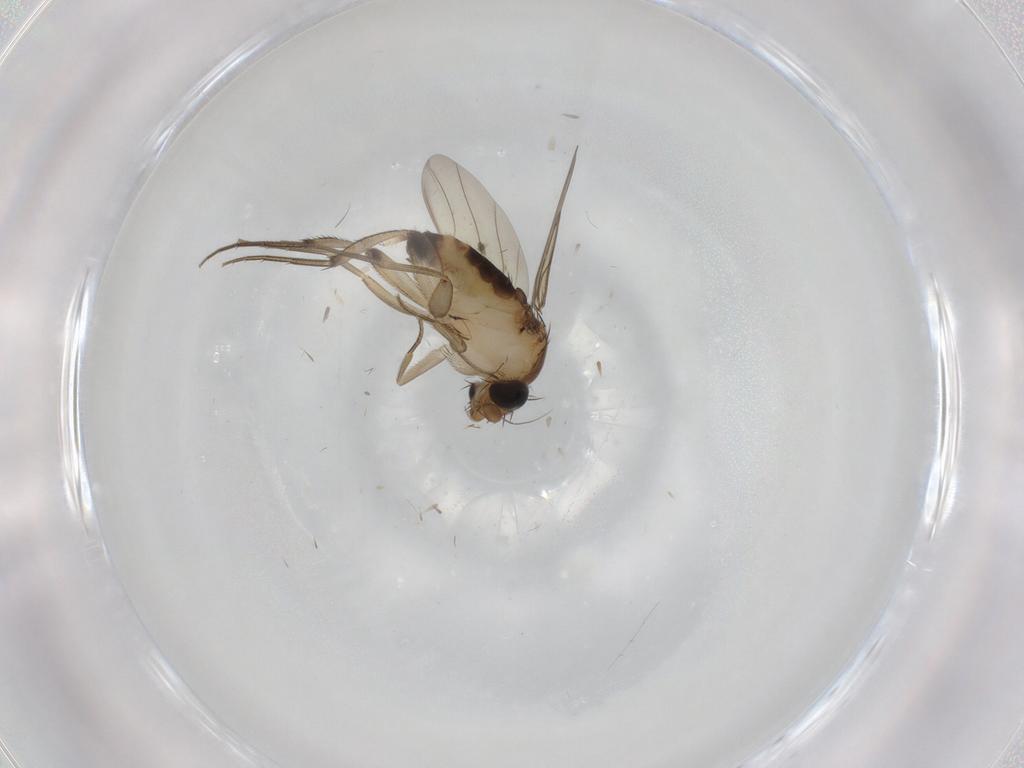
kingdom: Animalia
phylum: Arthropoda
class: Insecta
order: Diptera
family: Phoridae
